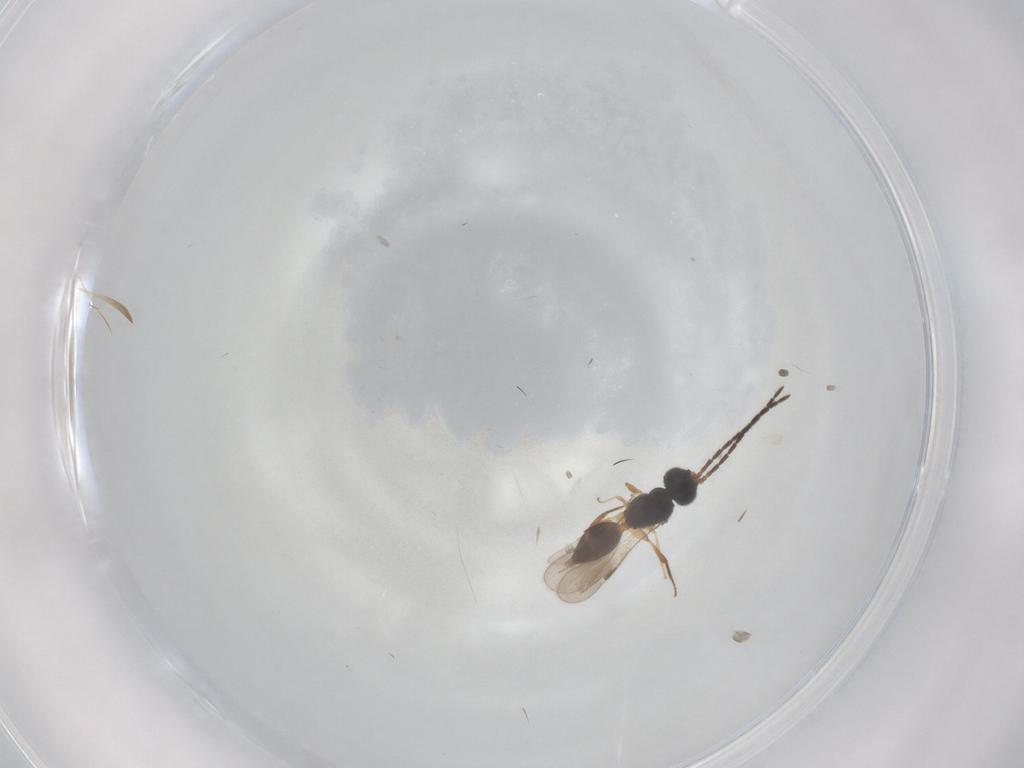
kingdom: Animalia
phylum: Arthropoda
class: Insecta
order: Hymenoptera
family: Megaspilidae
